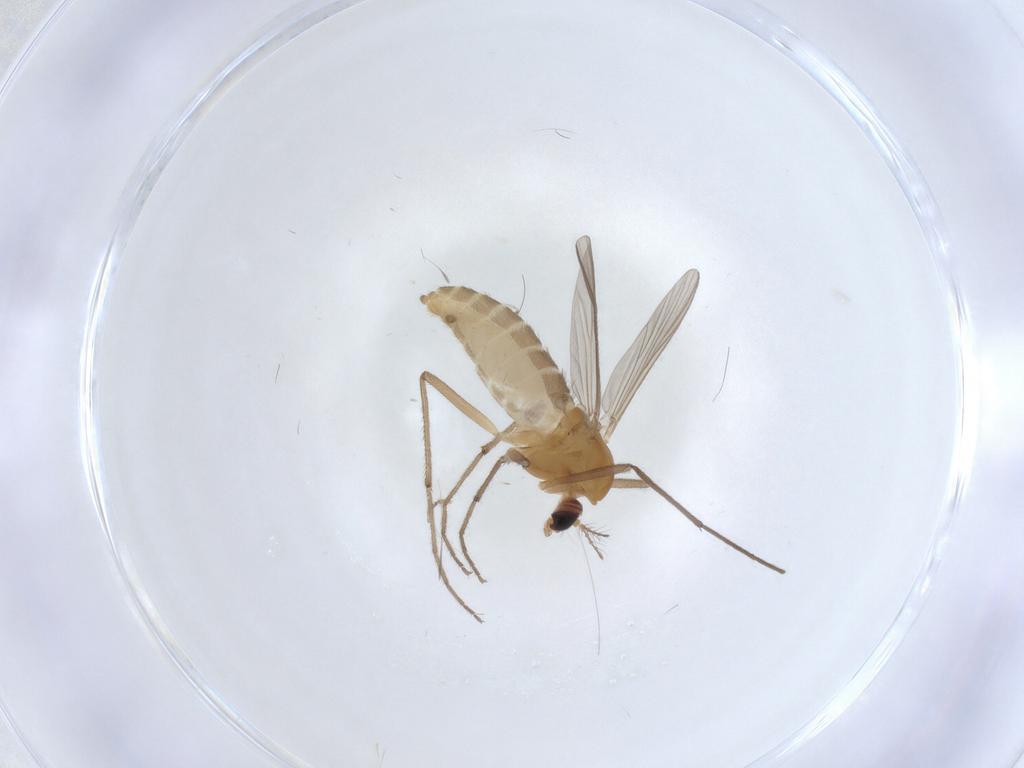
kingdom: Animalia
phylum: Arthropoda
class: Insecta
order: Diptera
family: Chironomidae
